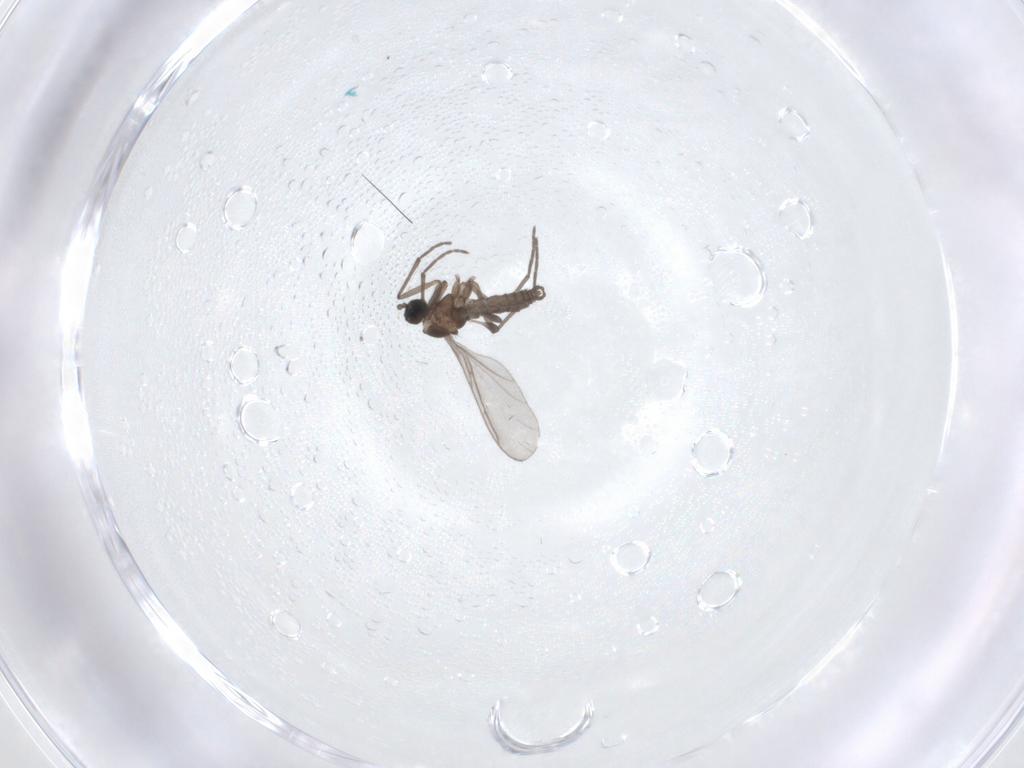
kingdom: Animalia
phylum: Arthropoda
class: Insecta
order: Diptera
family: Sciaridae
